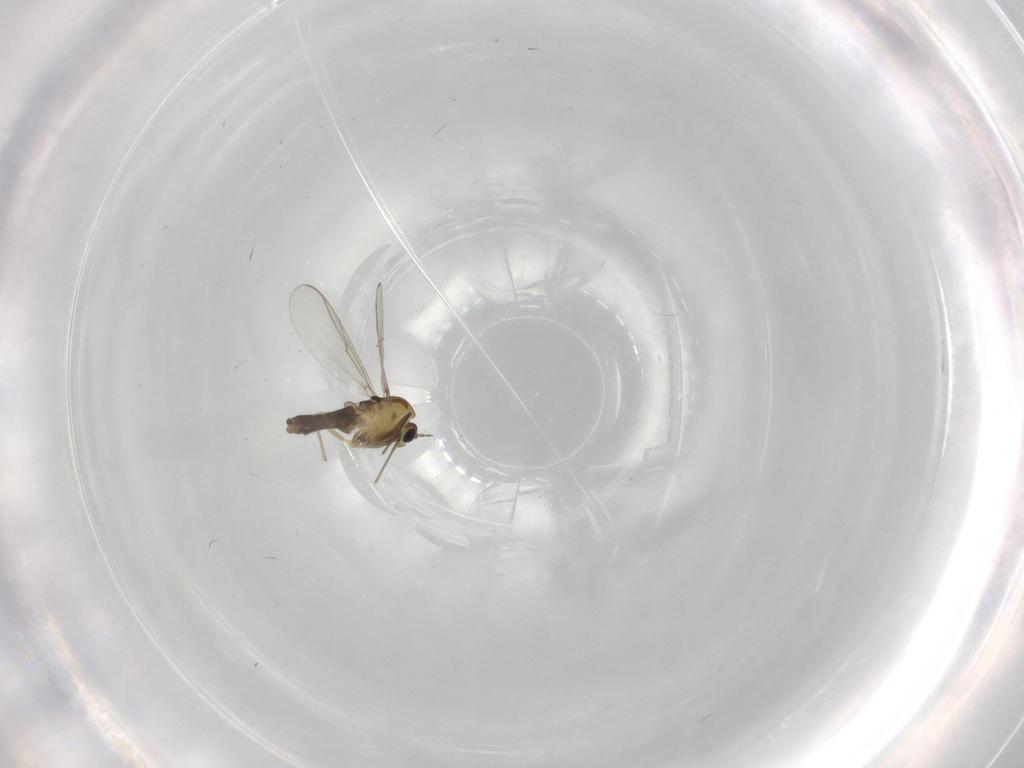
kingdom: Animalia
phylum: Arthropoda
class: Insecta
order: Diptera
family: Chironomidae
